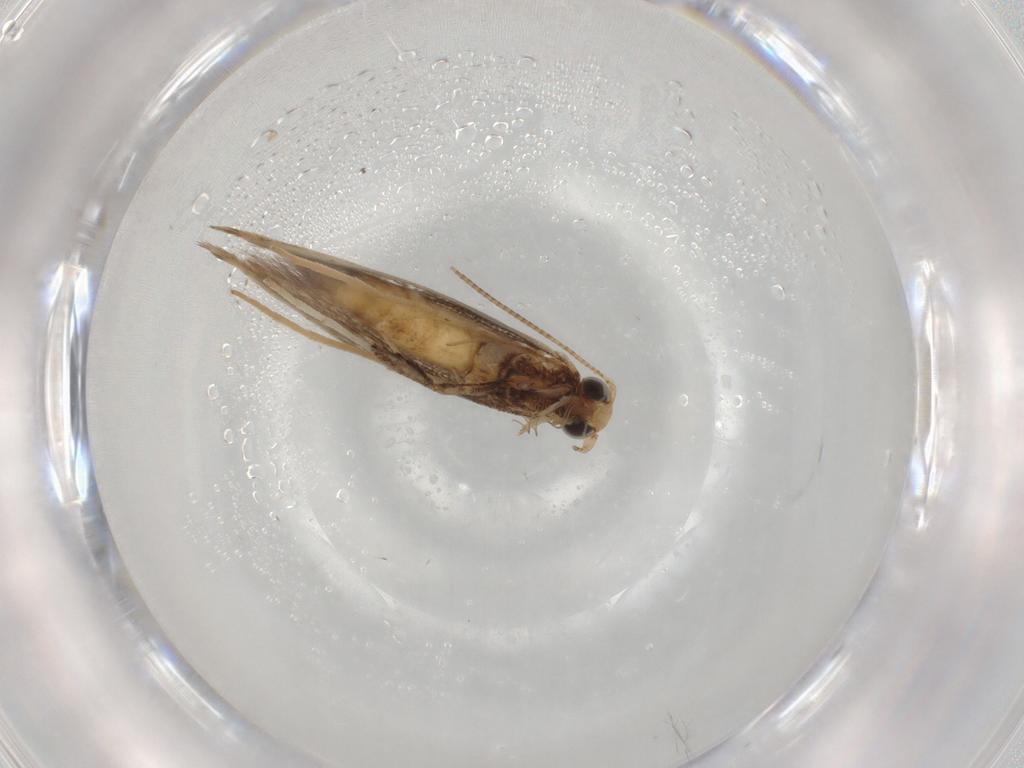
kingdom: Animalia
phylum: Arthropoda
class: Insecta
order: Lepidoptera
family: Gracillariidae
